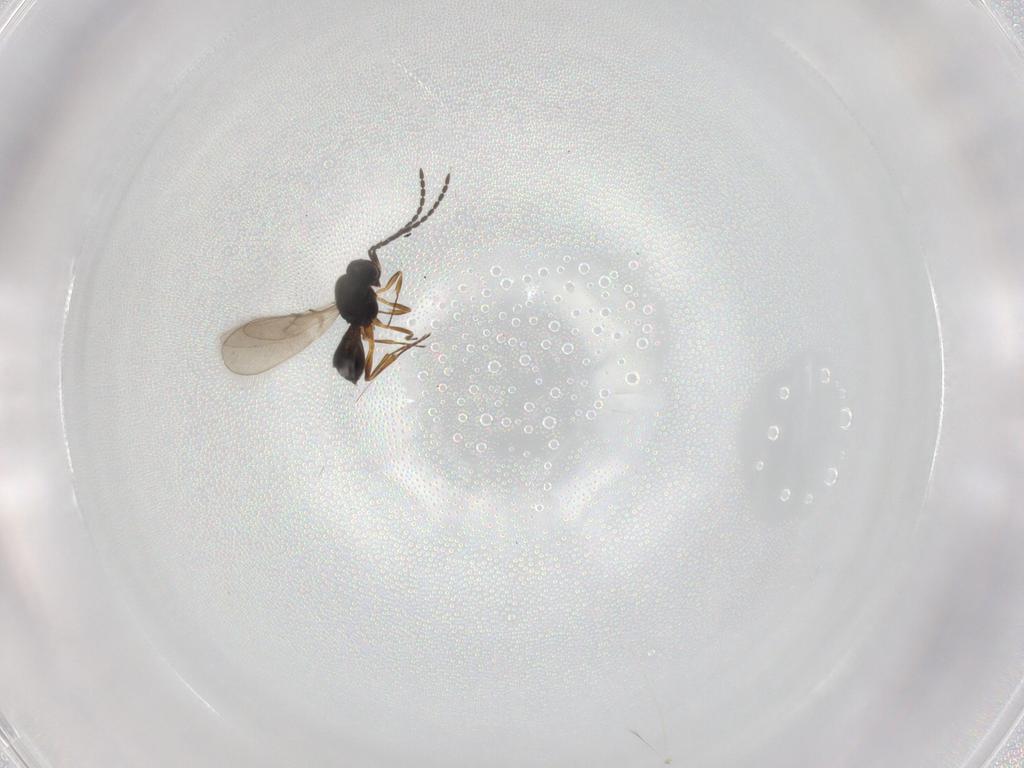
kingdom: Animalia
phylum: Arthropoda
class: Insecta
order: Hymenoptera
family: Scelionidae
